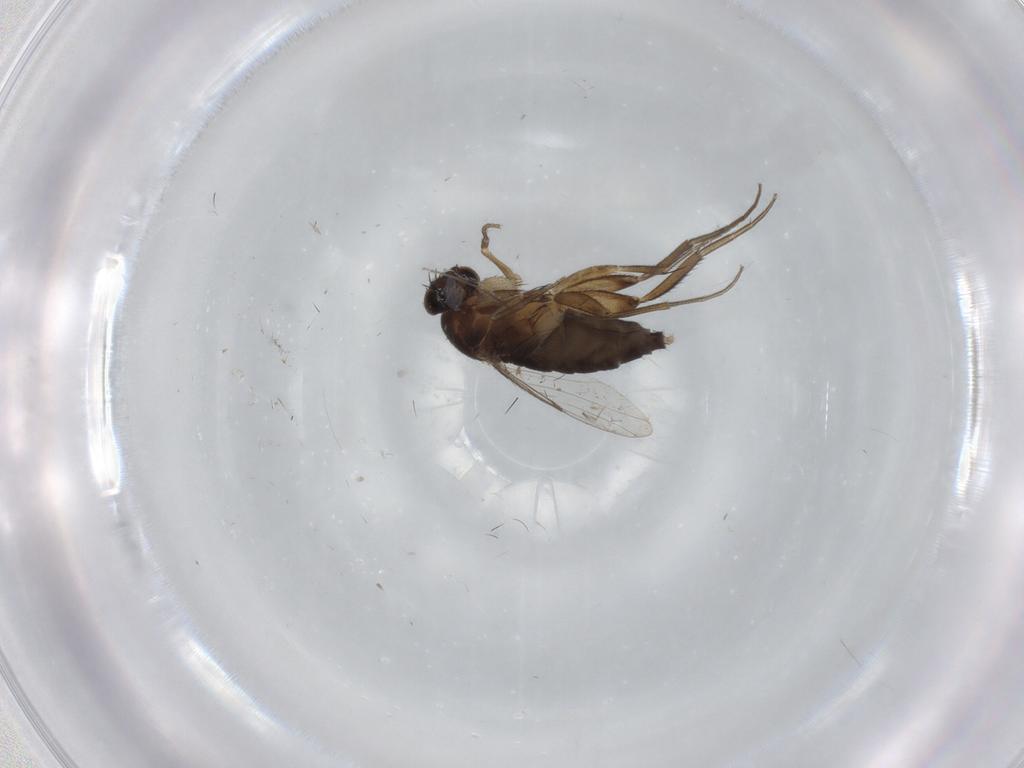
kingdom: Animalia
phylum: Arthropoda
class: Insecta
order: Diptera
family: Phoridae
